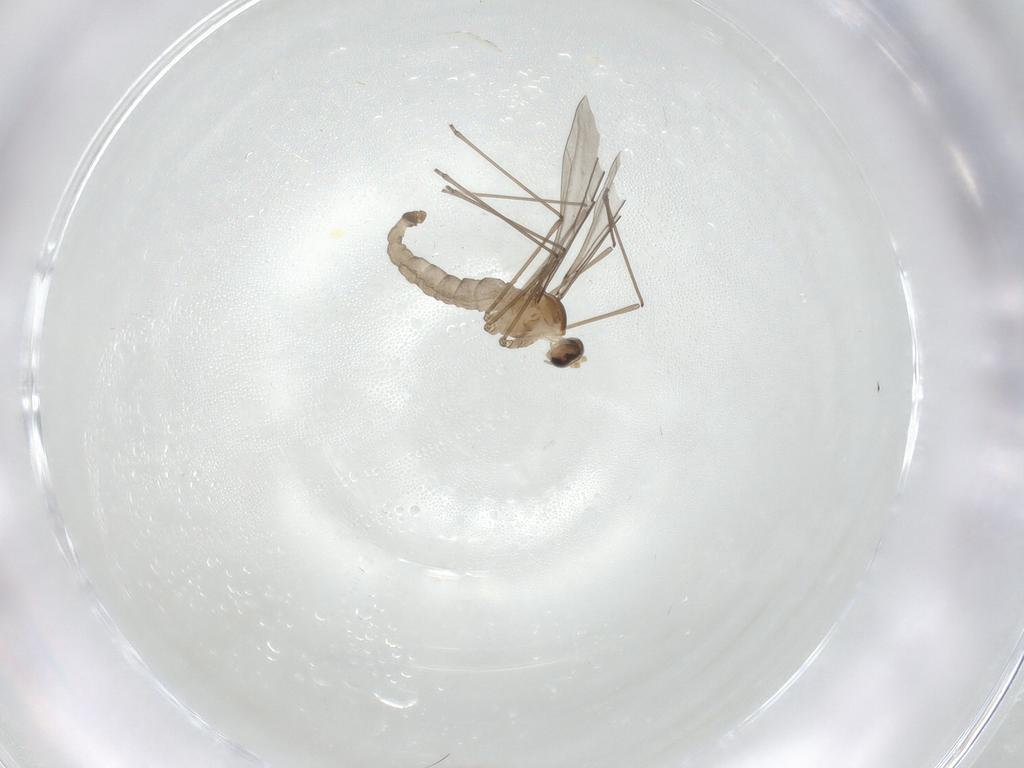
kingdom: Animalia
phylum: Arthropoda
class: Insecta
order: Diptera
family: Cecidomyiidae
